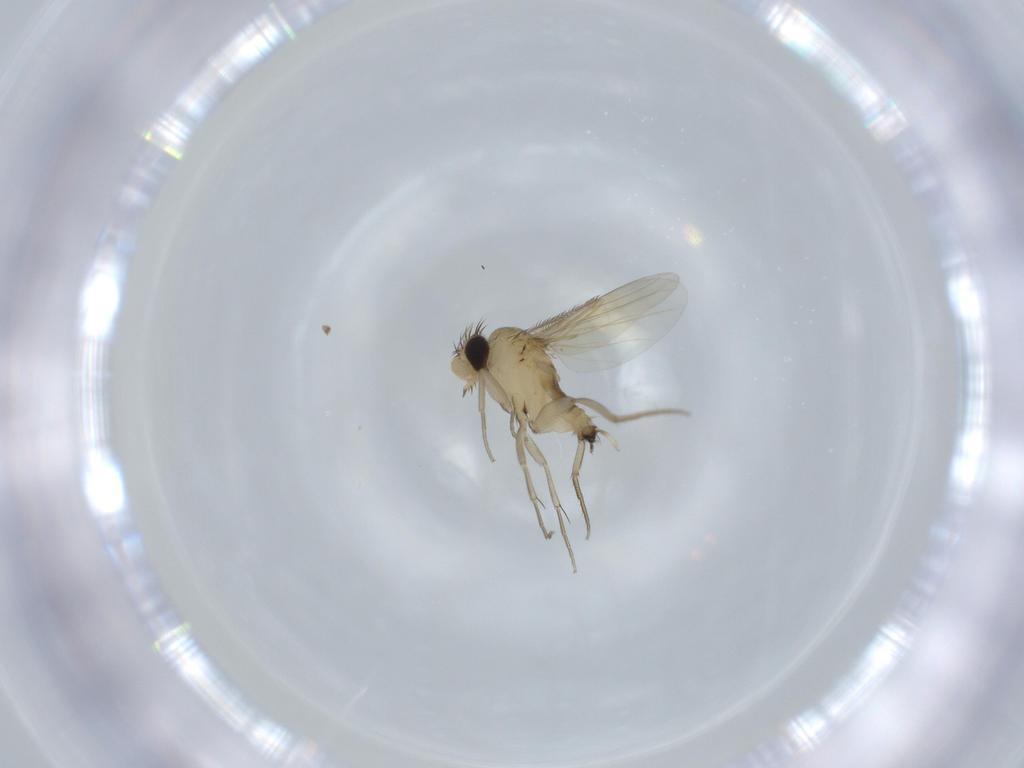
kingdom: Animalia
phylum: Arthropoda
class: Insecta
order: Diptera
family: Phoridae
